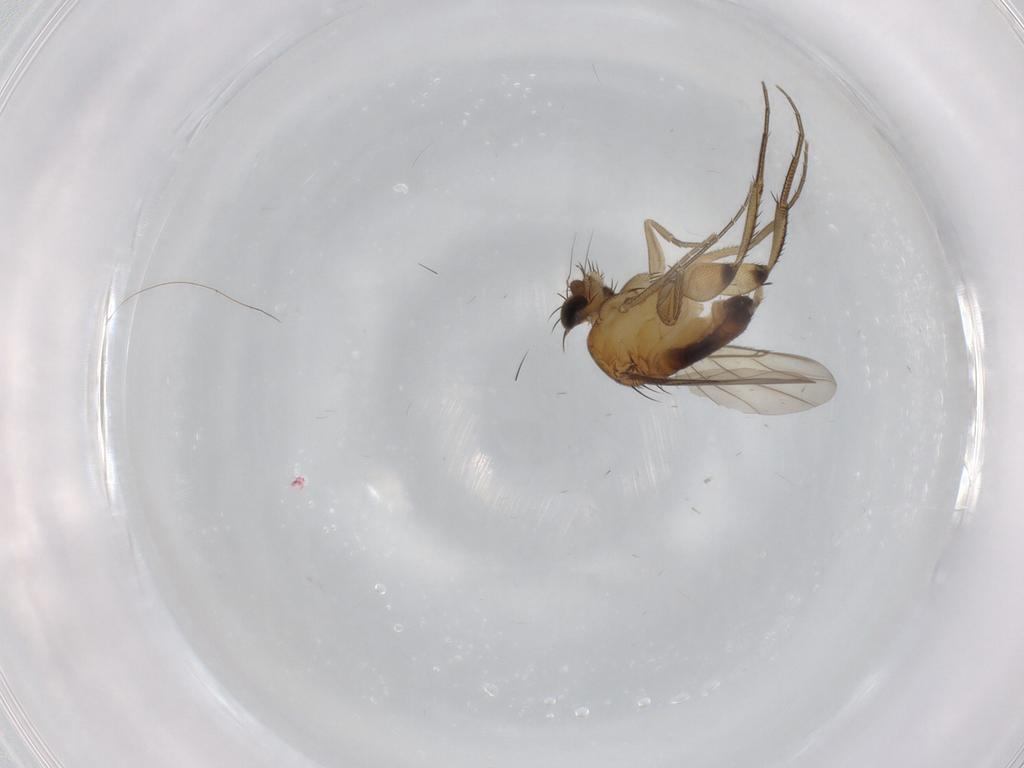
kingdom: Animalia
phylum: Arthropoda
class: Insecta
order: Diptera
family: Phoridae
